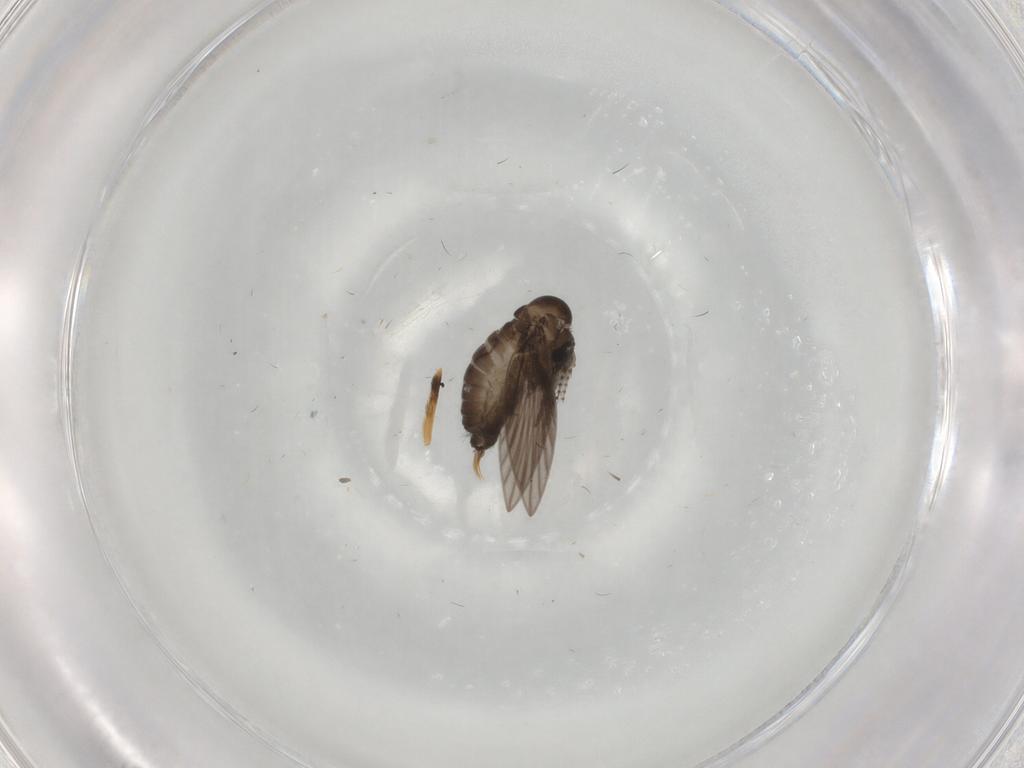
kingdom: Animalia
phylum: Arthropoda
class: Insecta
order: Diptera
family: Psychodidae
